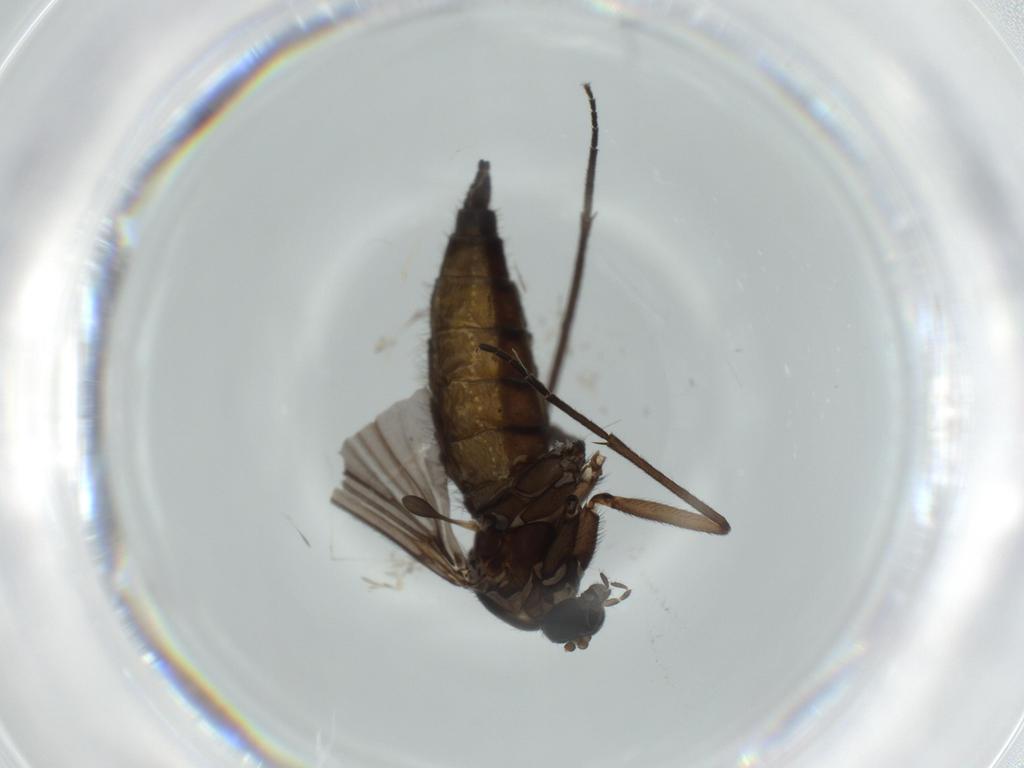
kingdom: Animalia
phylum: Arthropoda
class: Insecta
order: Diptera
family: Sciaridae
